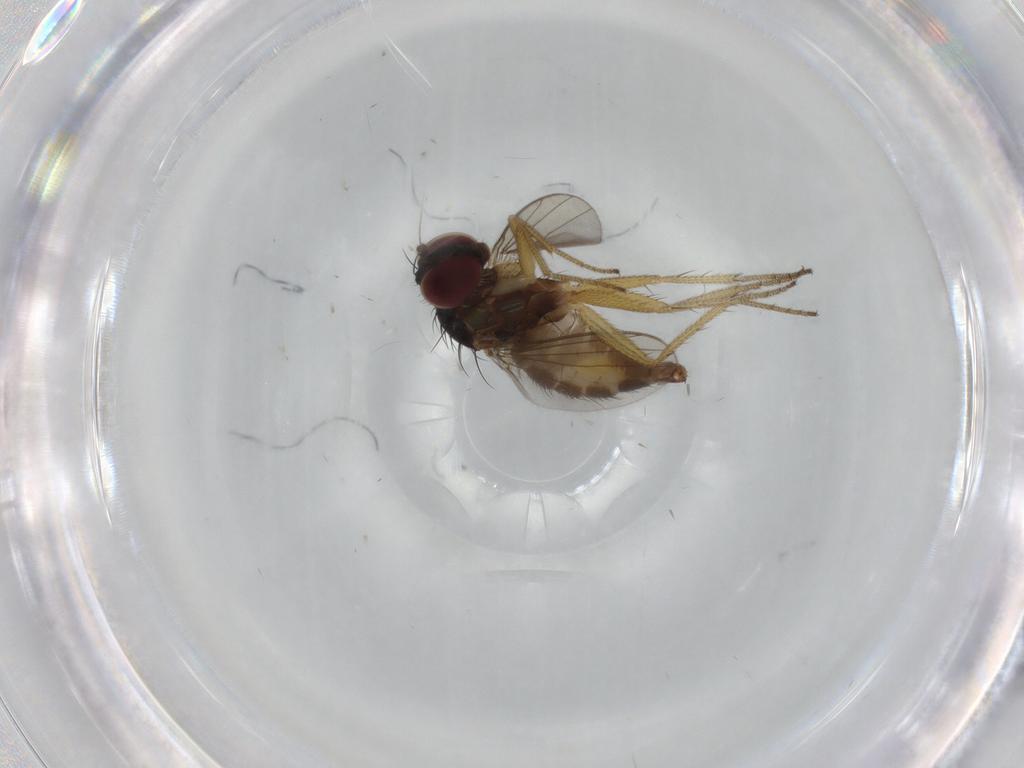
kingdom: Animalia
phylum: Arthropoda
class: Insecta
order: Diptera
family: Dolichopodidae
